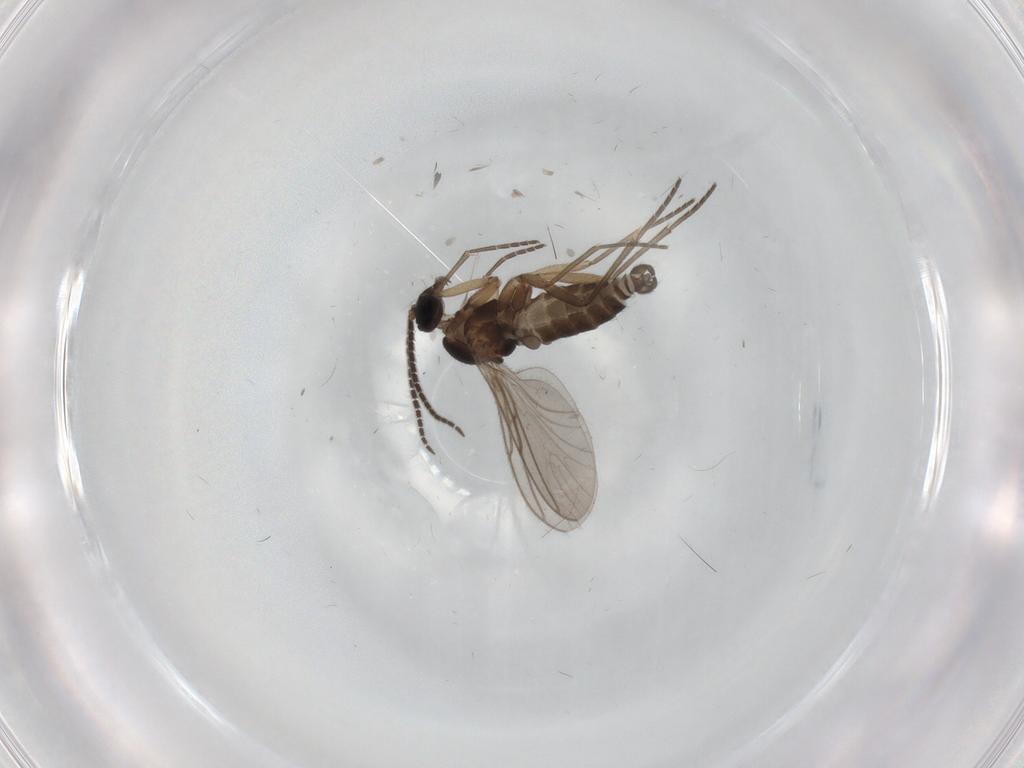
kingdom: Animalia
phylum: Arthropoda
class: Insecta
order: Diptera
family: Sciaridae
